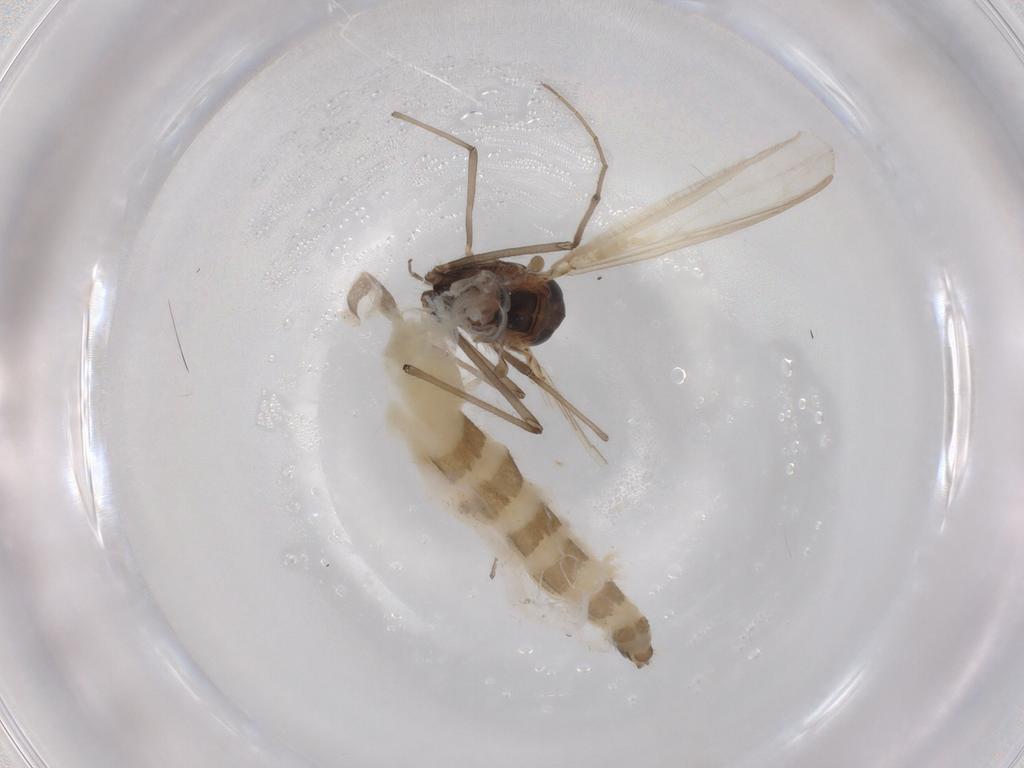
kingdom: Animalia
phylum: Arthropoda
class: Insecta
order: Diptera
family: Chironomidae
